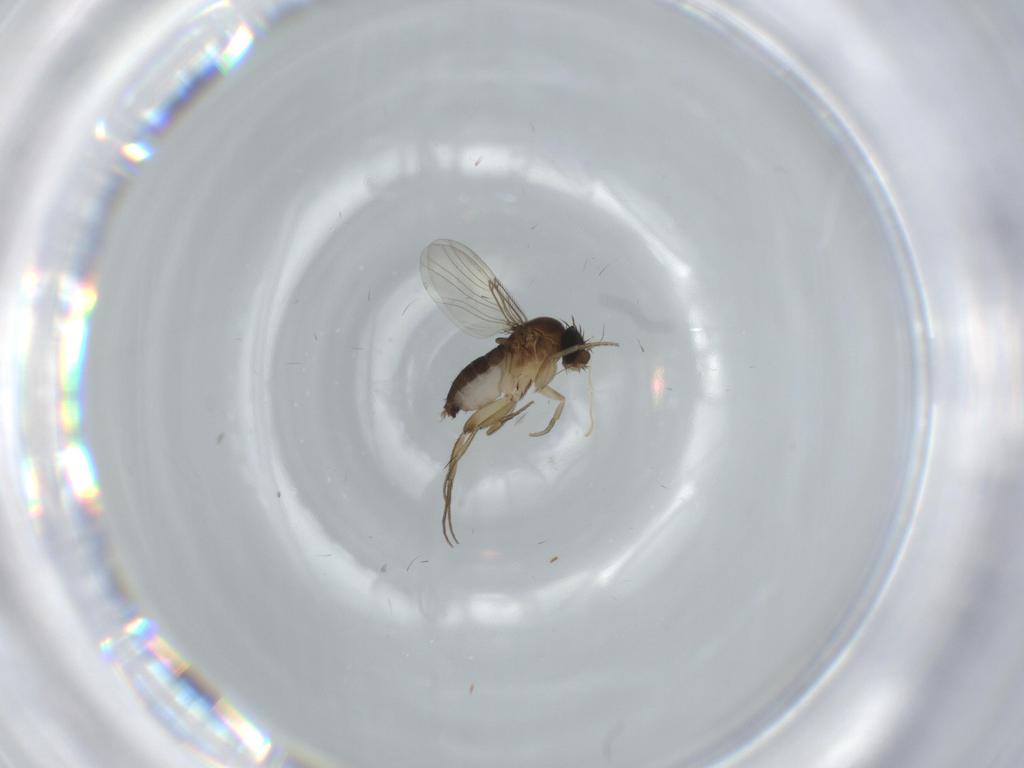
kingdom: Animalia
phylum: Arthropoda
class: Insecta
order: Diptera
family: Phoridae
